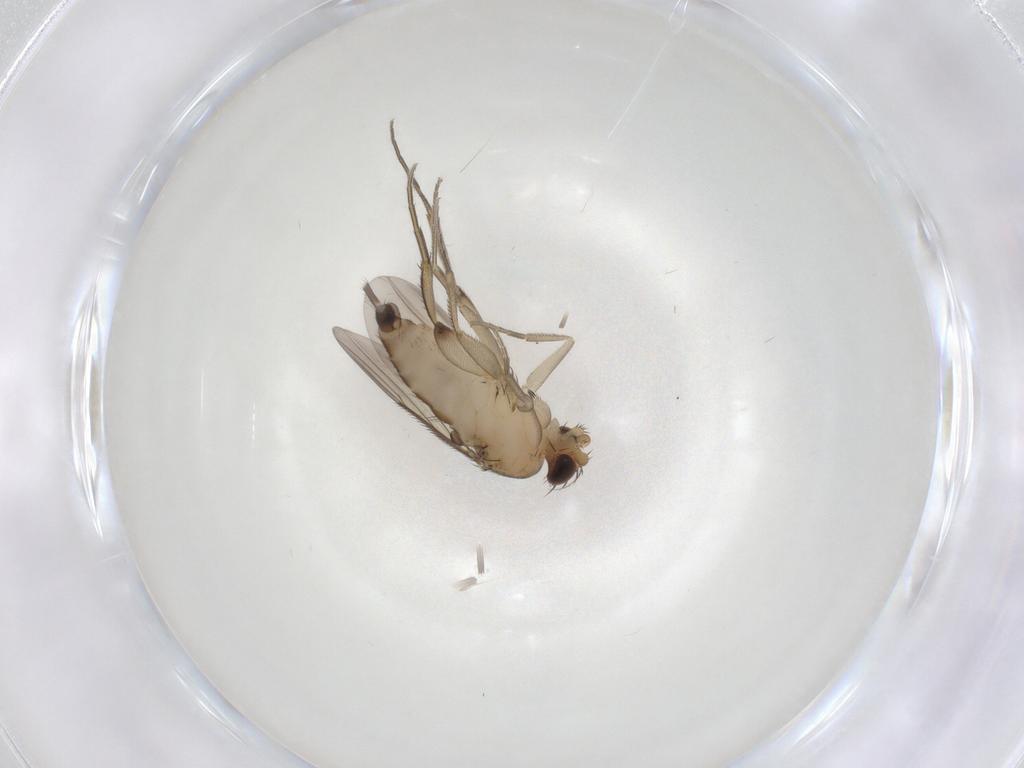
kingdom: Animalia
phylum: Arthropoda
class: Insecta
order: Diptera
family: Phoridae
